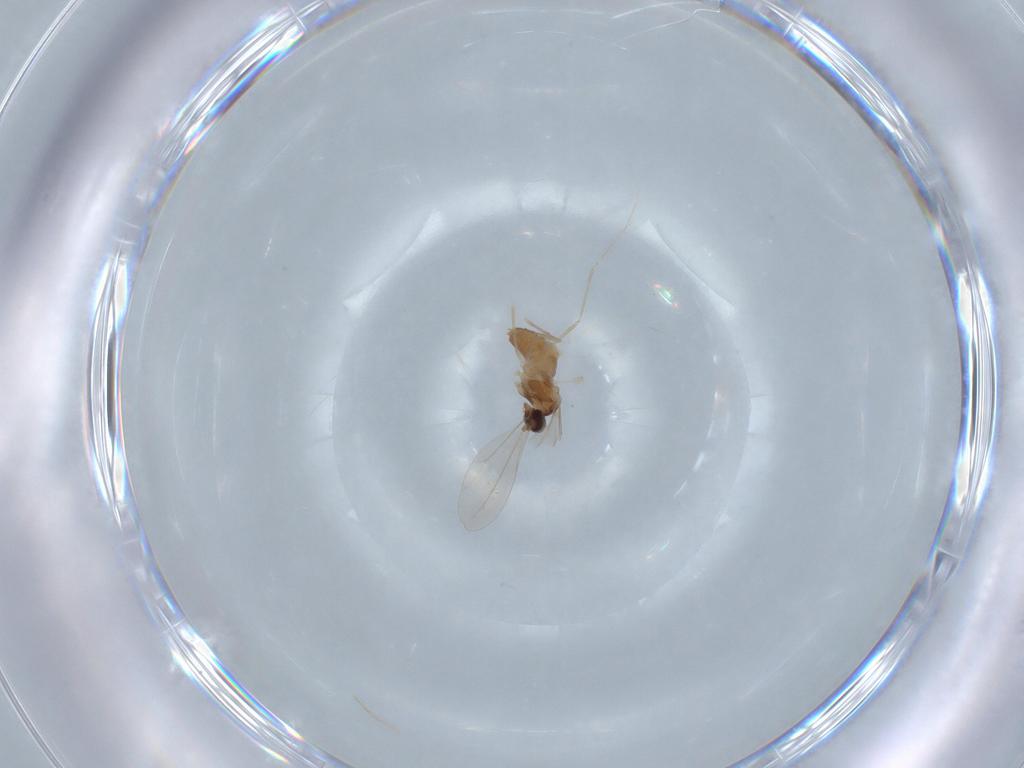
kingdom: Animalia
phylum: Arthropoda
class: Insecta
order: Diptera
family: Cecidomyiidae
